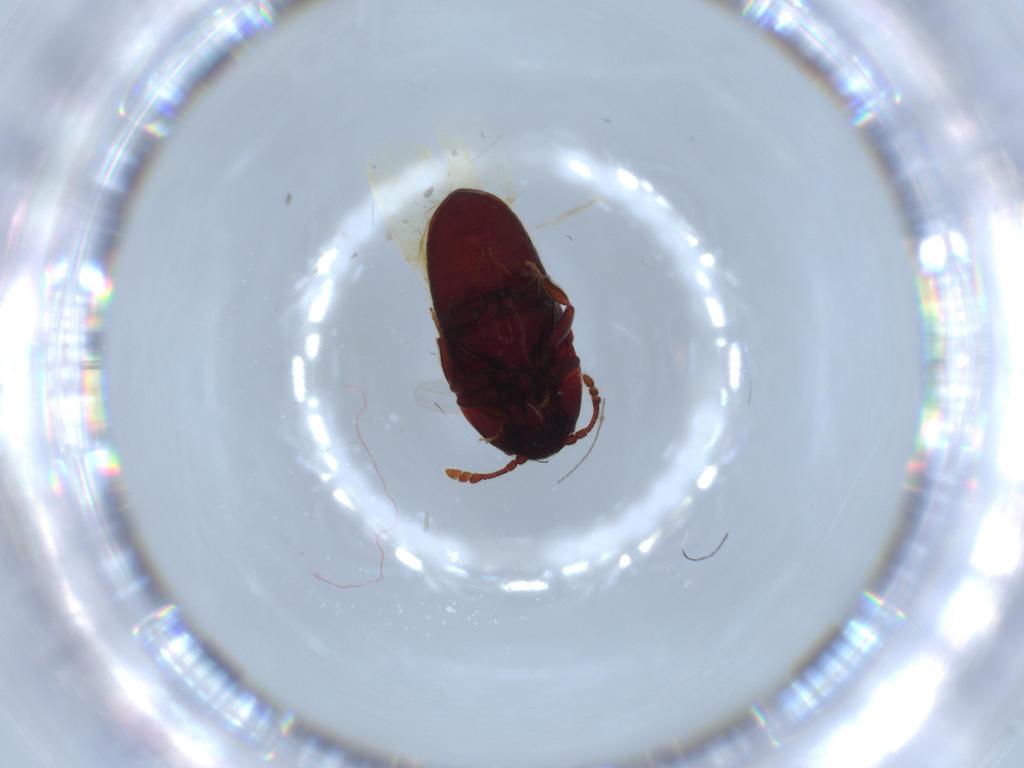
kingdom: Animalia
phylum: Arthropoda
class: Insecta
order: Coleoptera
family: Throscidae
